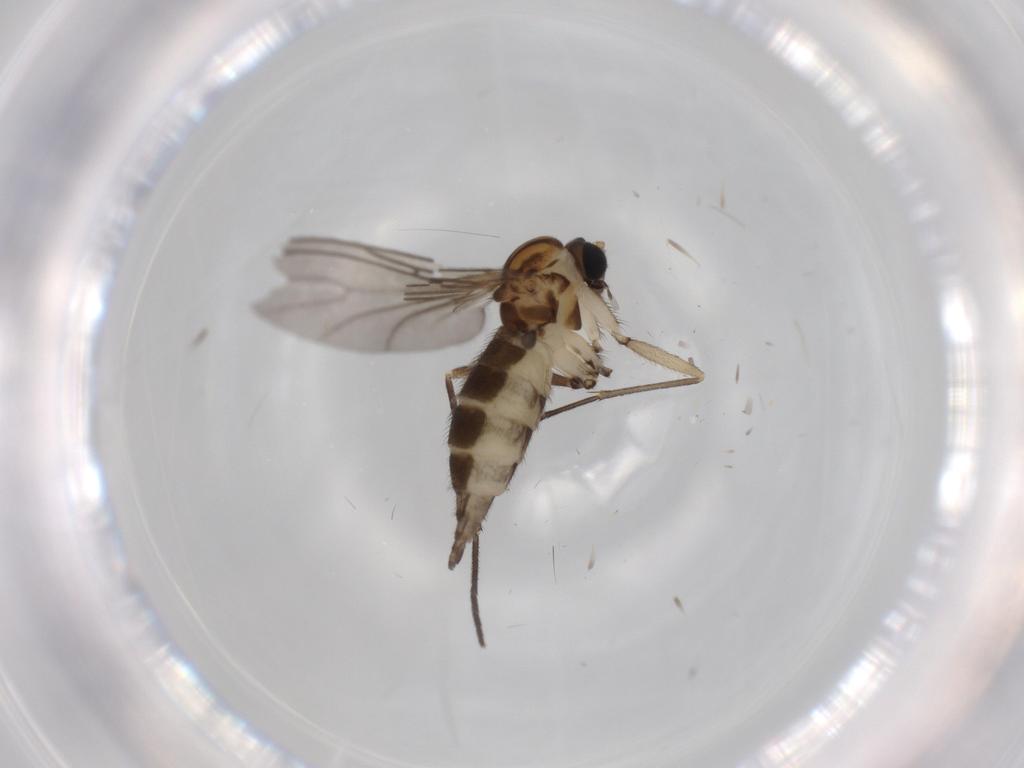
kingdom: Animalia
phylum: Arthropoda
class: Insecta
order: Diptera
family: Chironomidae
